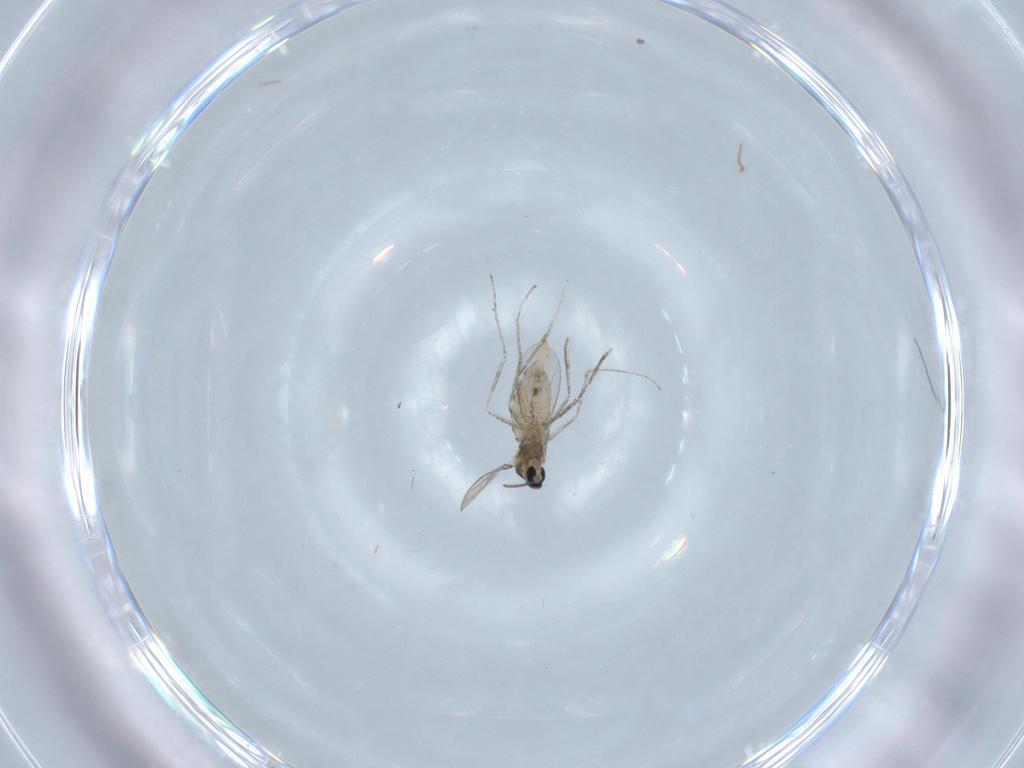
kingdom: Animalia
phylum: Arthropoda
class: Insecta
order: Diptera
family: Cecidomyiidae
